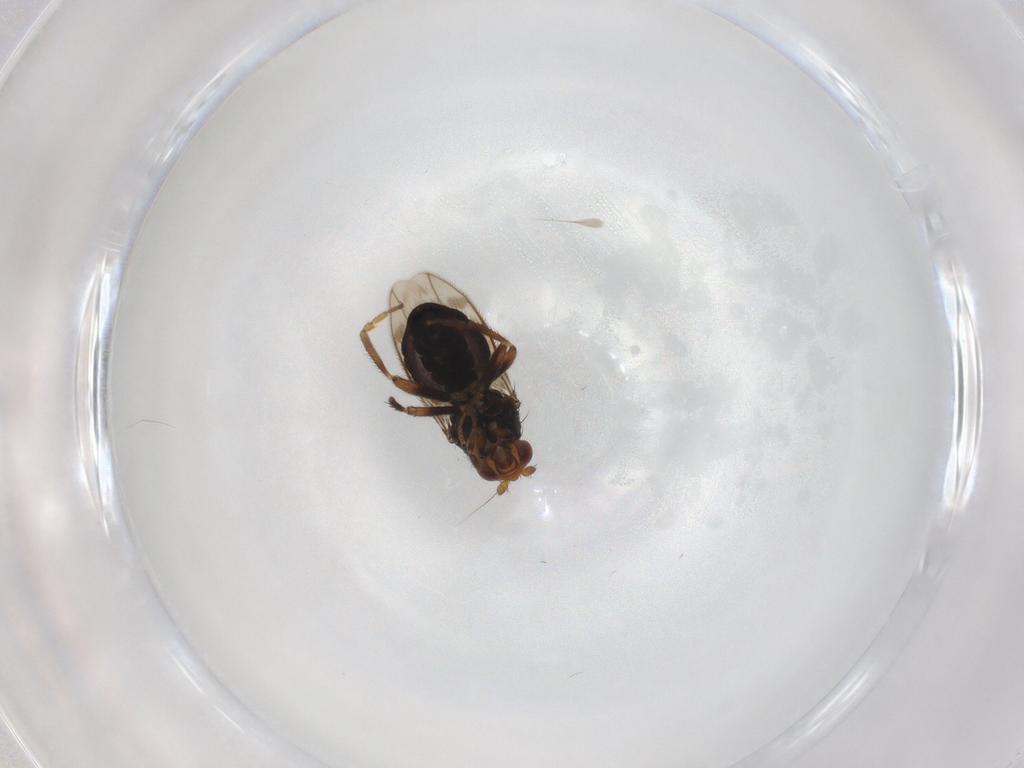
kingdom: Animalia
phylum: Arthropoda
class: Insecta
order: Diptera
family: Sphaeroceridae
